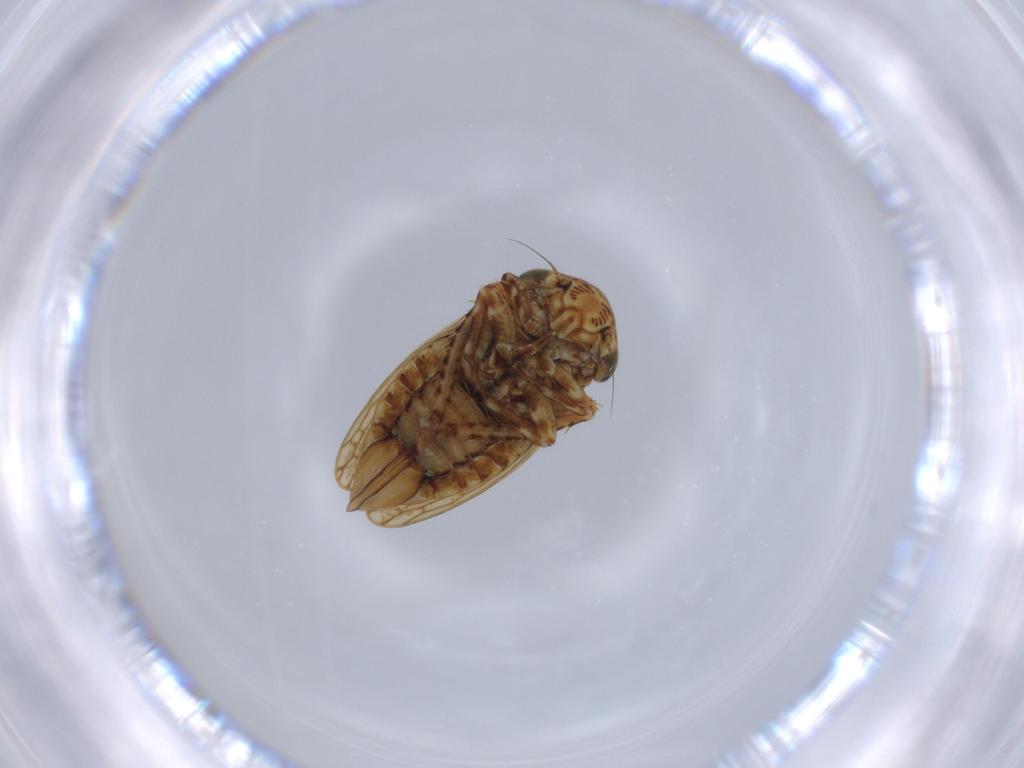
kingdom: Animalia
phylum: Arthropoda
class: Insecta
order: Hemiptera
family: Cicadellidae
